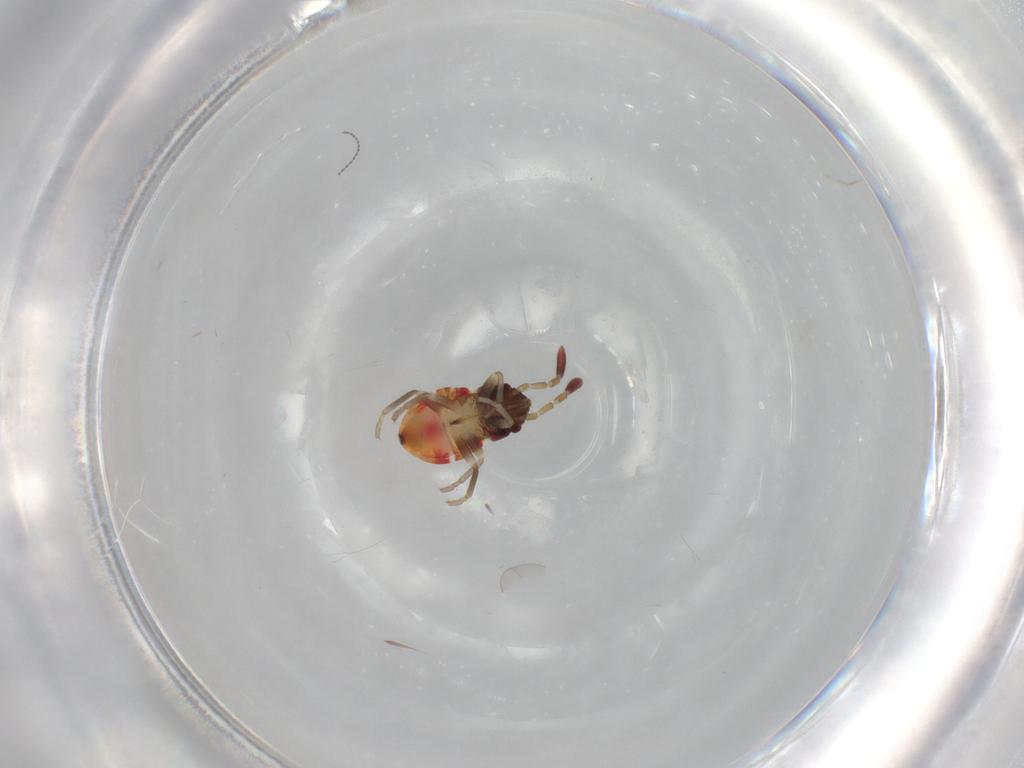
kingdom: Animalia
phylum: Arthropoda
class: Insecta
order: Hemiptera
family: Rhyparochromidae
